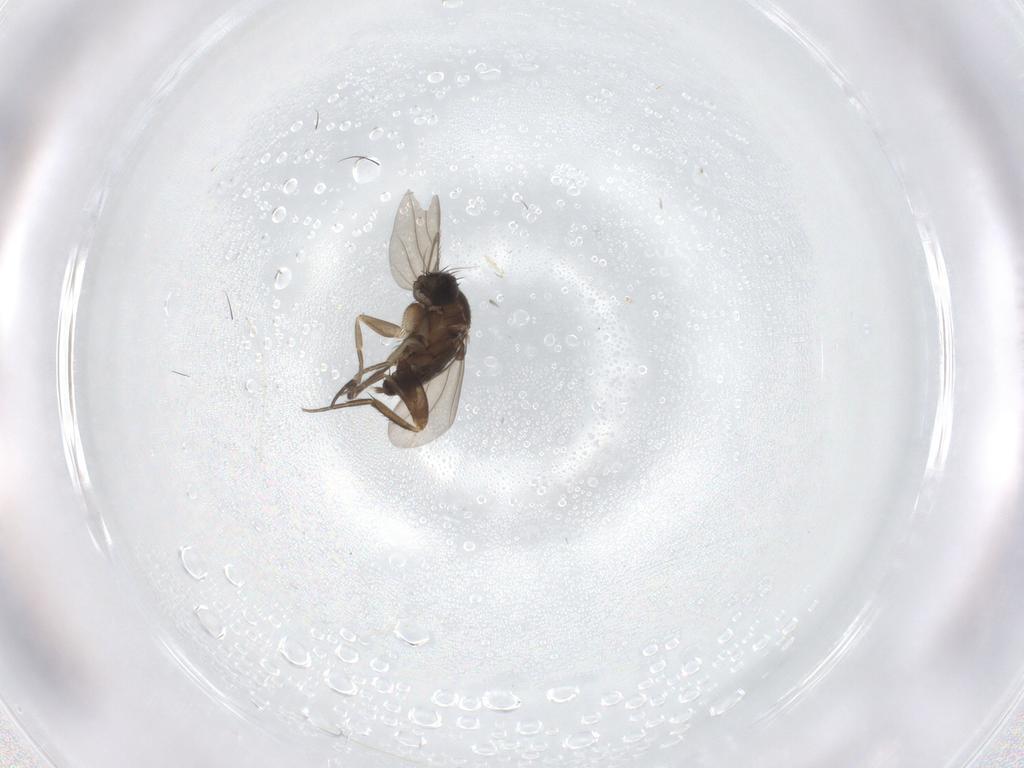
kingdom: Animalia
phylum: Arthropoda
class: Insecta
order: Diptera
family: Phoridae
